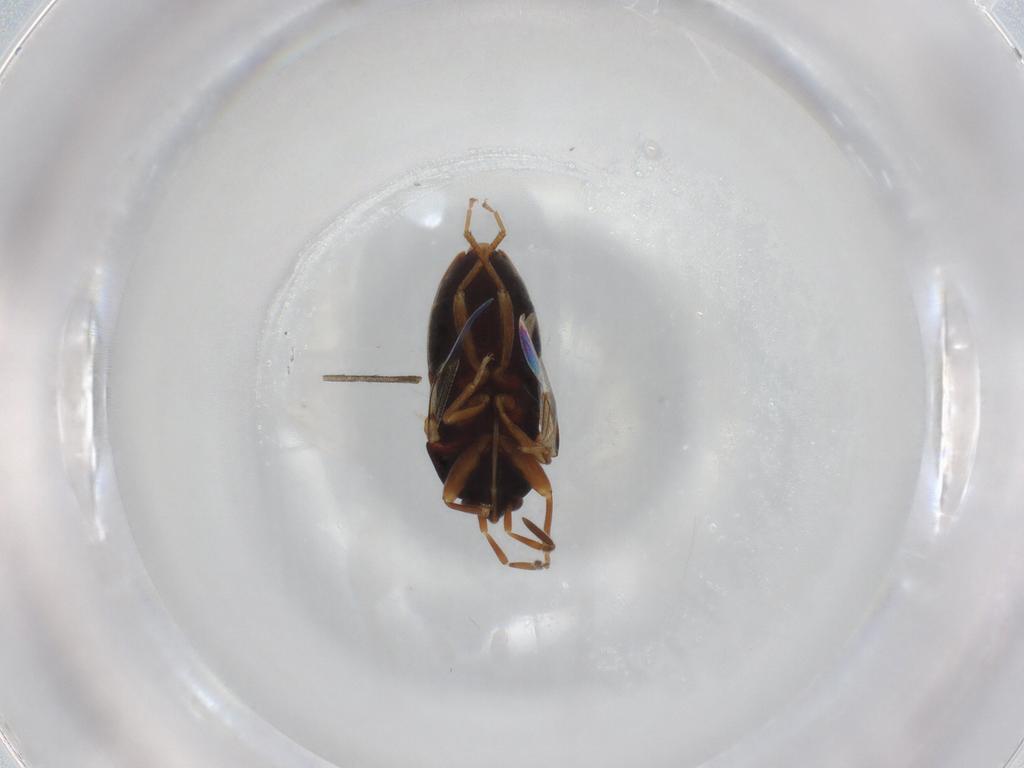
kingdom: Animalia
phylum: Arthropoda
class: Insecta
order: Hemiptera
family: Rhyparochromidae
